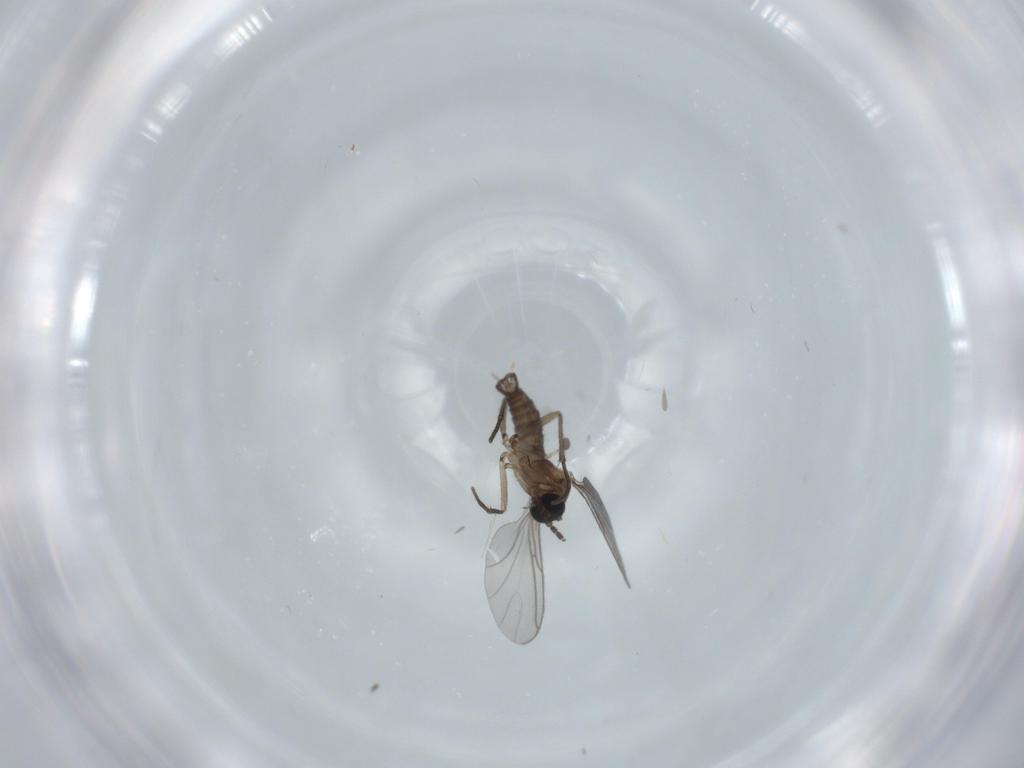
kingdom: Animalia
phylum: Arthropoda
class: Insecta
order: Diptera
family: Sciaridae
